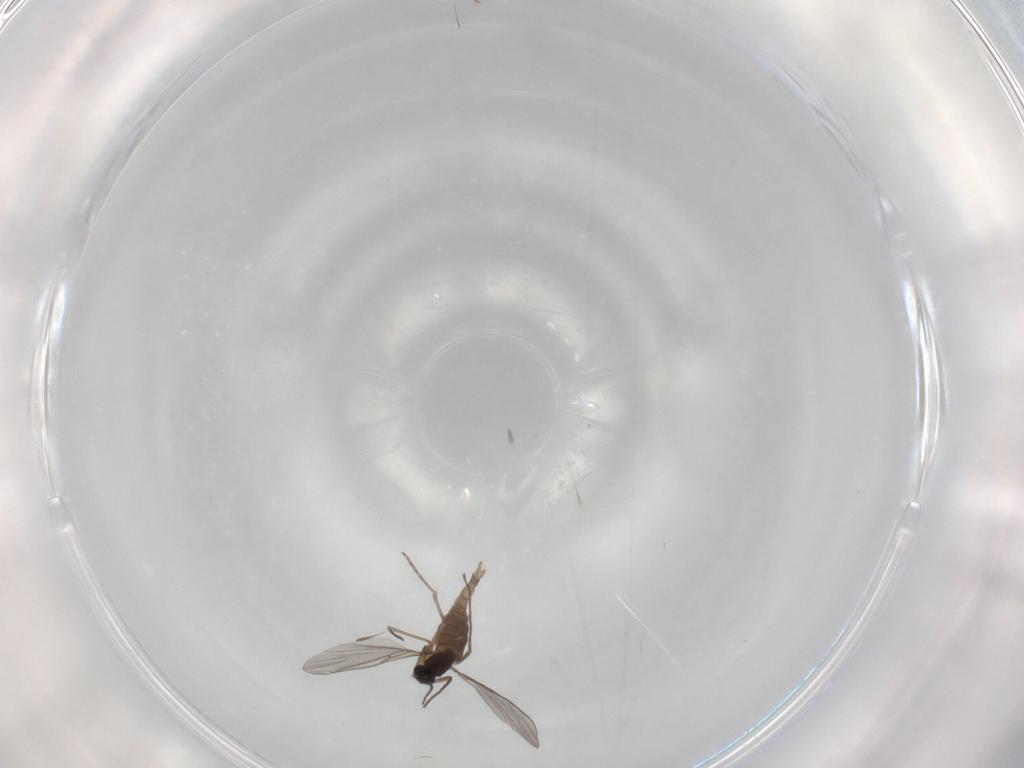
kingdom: Animalia
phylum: Arthropoda
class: Insecta
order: Diptera
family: Sciaridae
